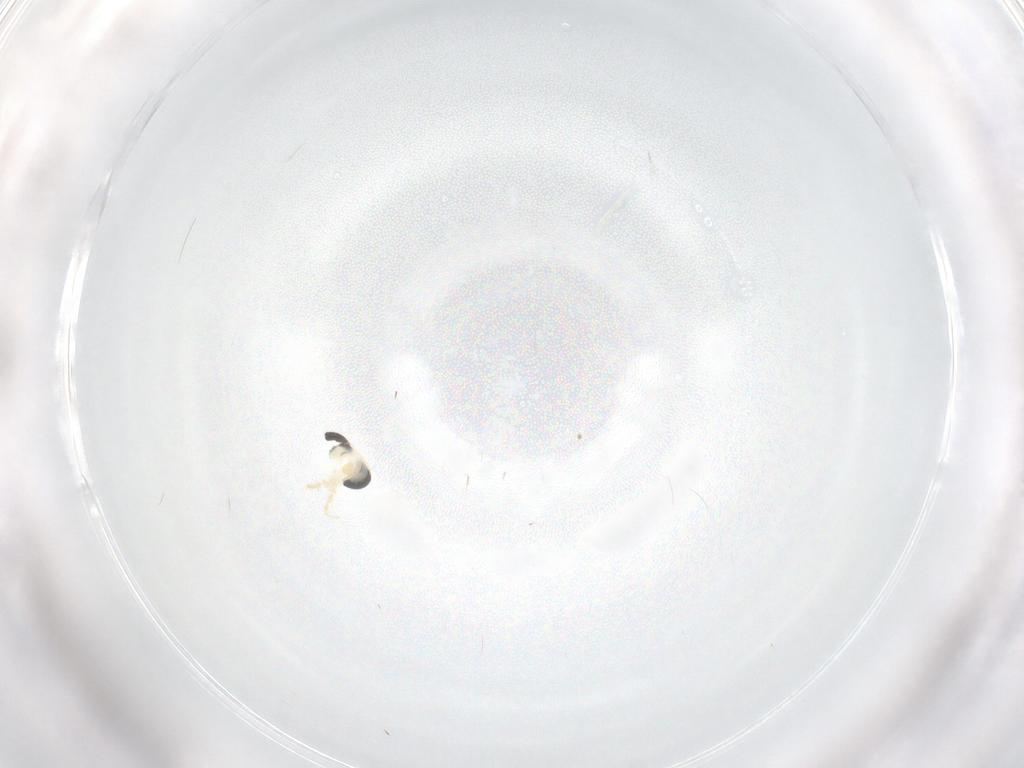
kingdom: Animalia
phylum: Arthropoda
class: Insecta
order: Diptera
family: Chironomidae
